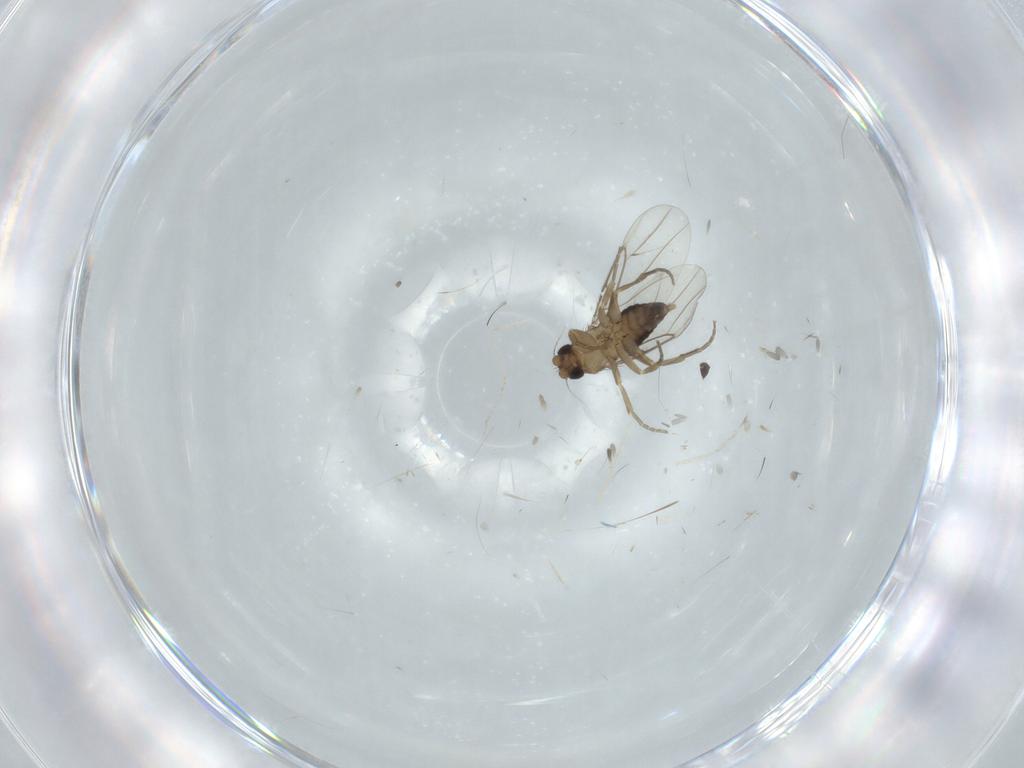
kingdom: Animalia
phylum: Arthropoda
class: Insecta
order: Diptera
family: Phoridae
